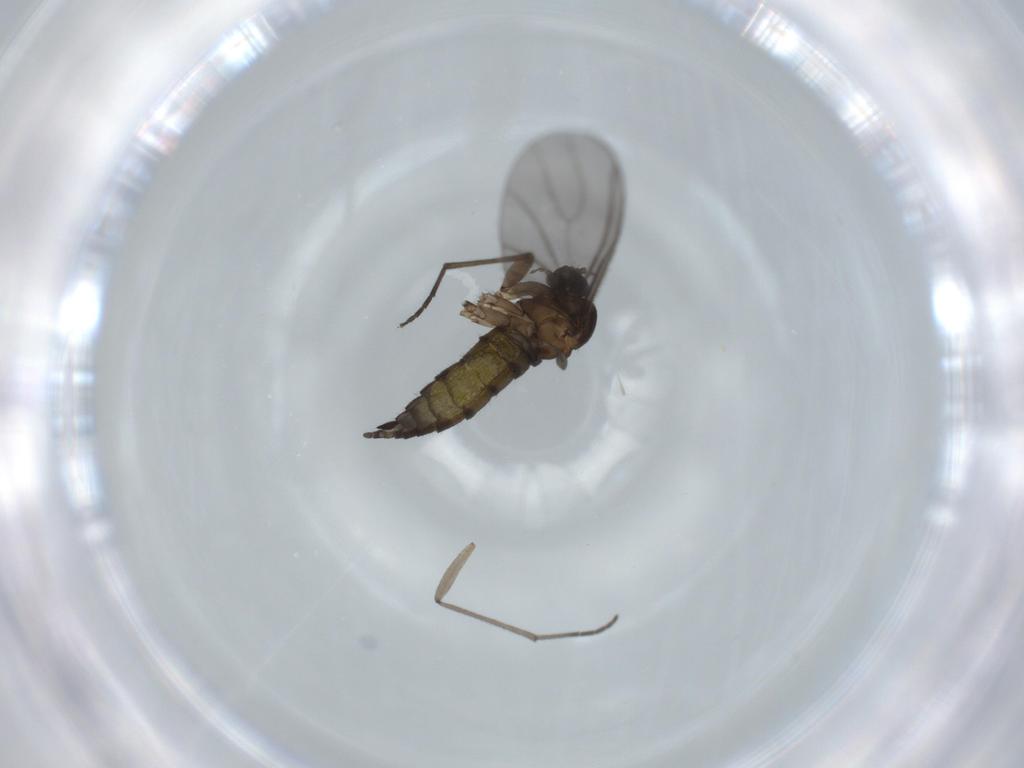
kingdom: Animalia
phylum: Arthropoda
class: Insecta
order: Diptera
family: Sciaridae
